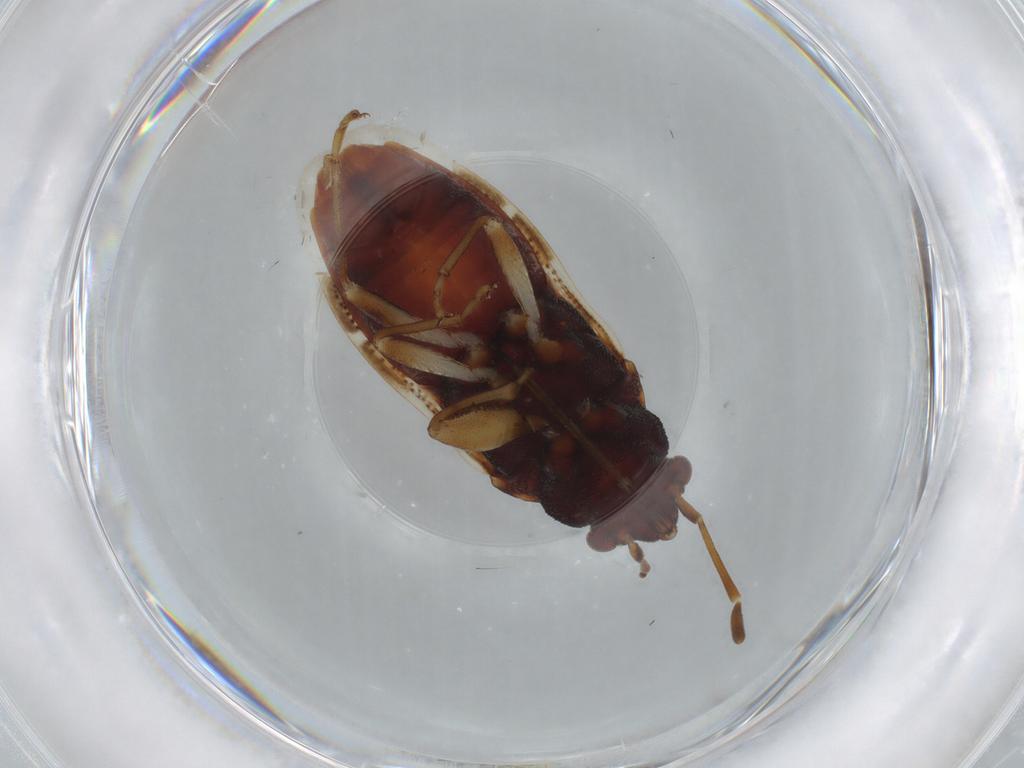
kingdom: Animalia
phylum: Arthropoda
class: Insecta
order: Hemiptera
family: Rhyparochromidae
